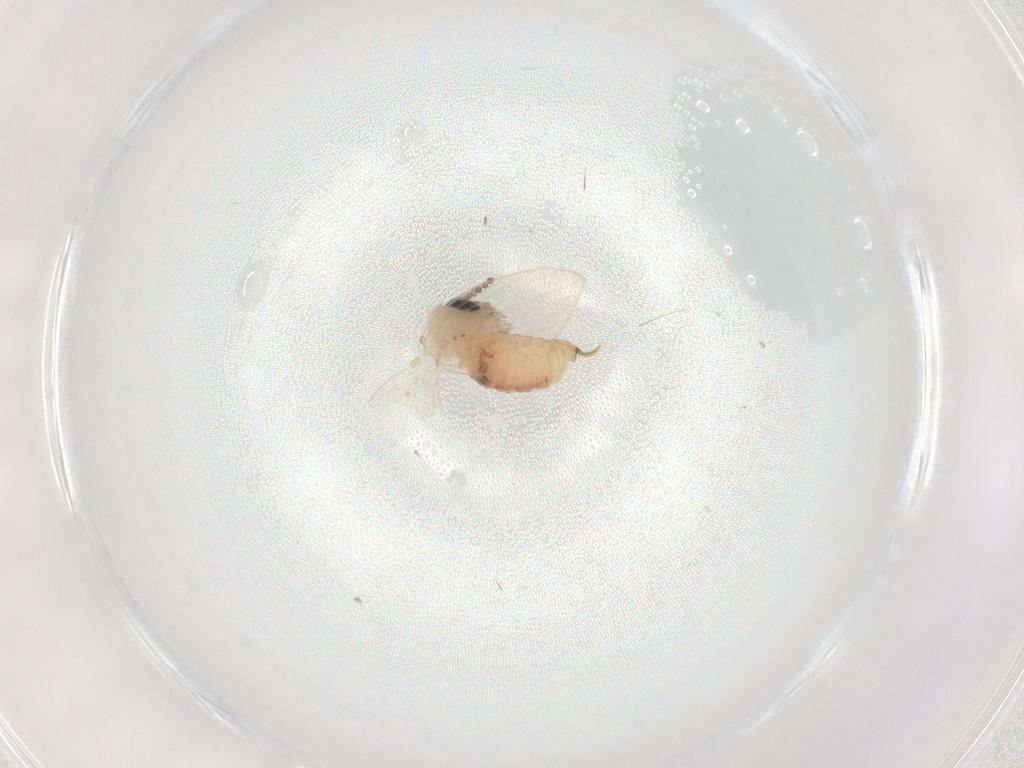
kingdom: Animalia
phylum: Arthropoda
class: Insecta
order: Diptera
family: Psychodidae
